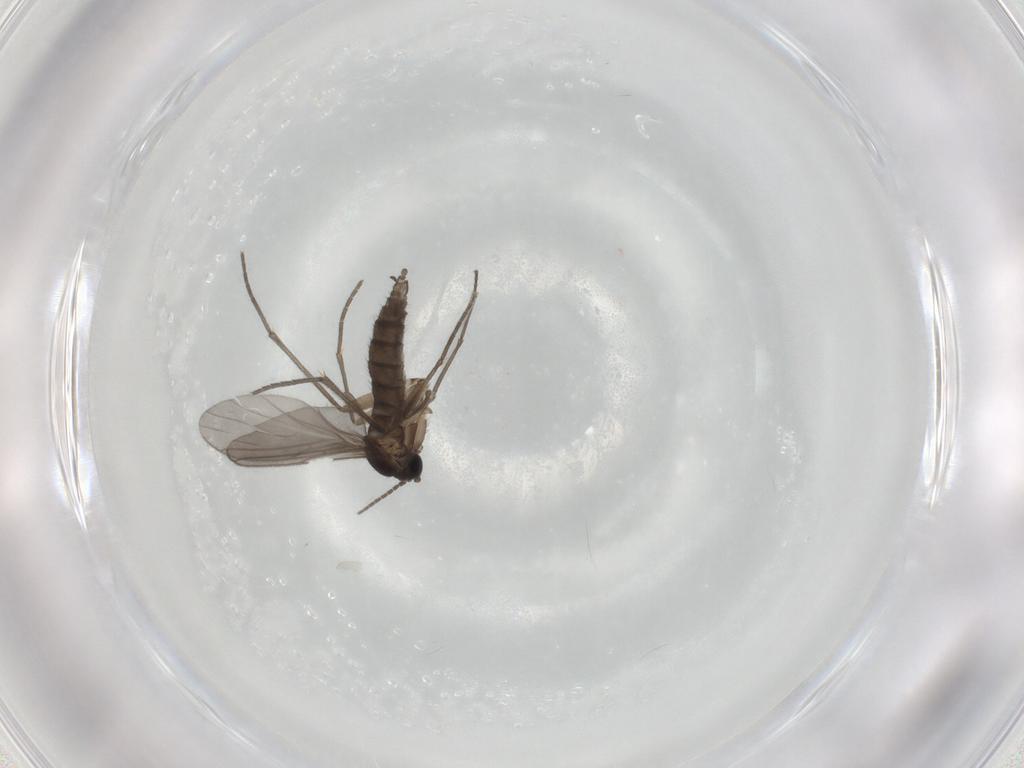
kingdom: Animalia
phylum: Arthropoda
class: Insecta
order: Diptera
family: Sciaridae
